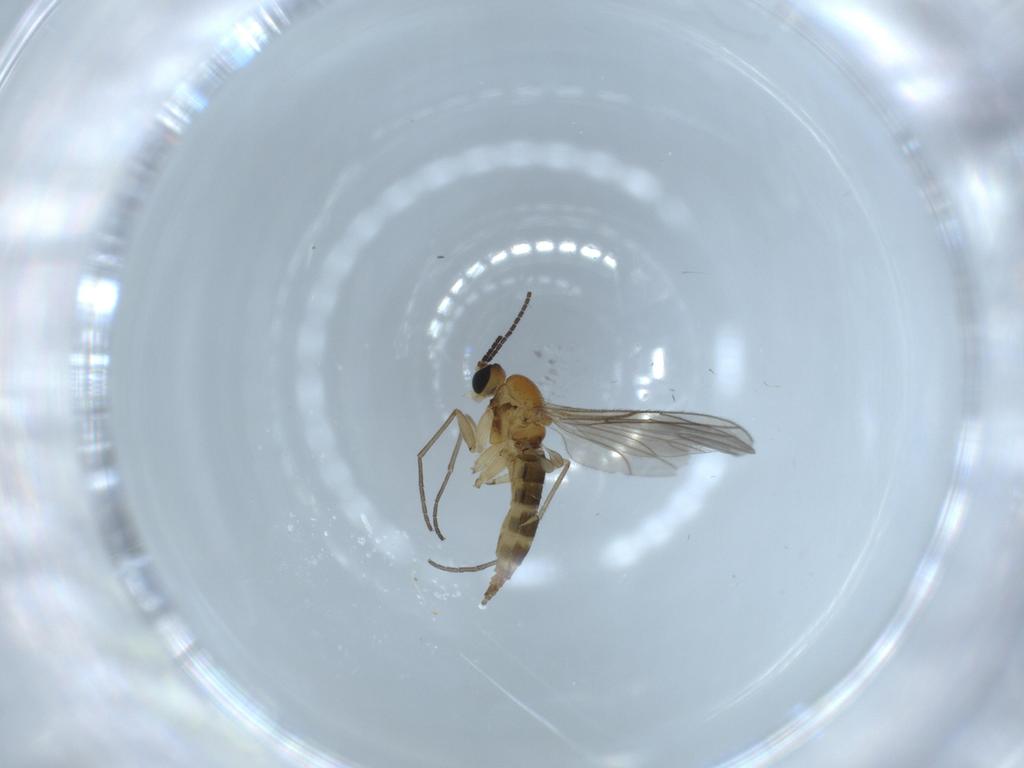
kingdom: Animalia
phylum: Arthropoda
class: Insecta
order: Diptera
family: Sciaridae
